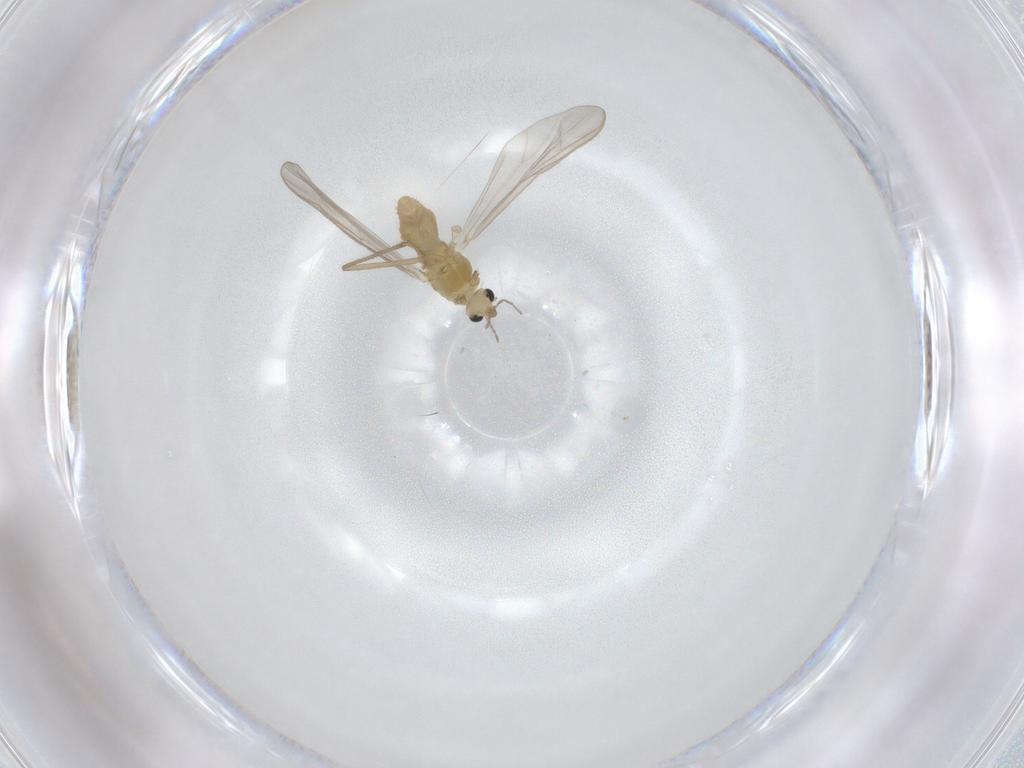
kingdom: Animalia
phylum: Arthropoda
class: Insecta
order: Diptera
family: Chironomidae
